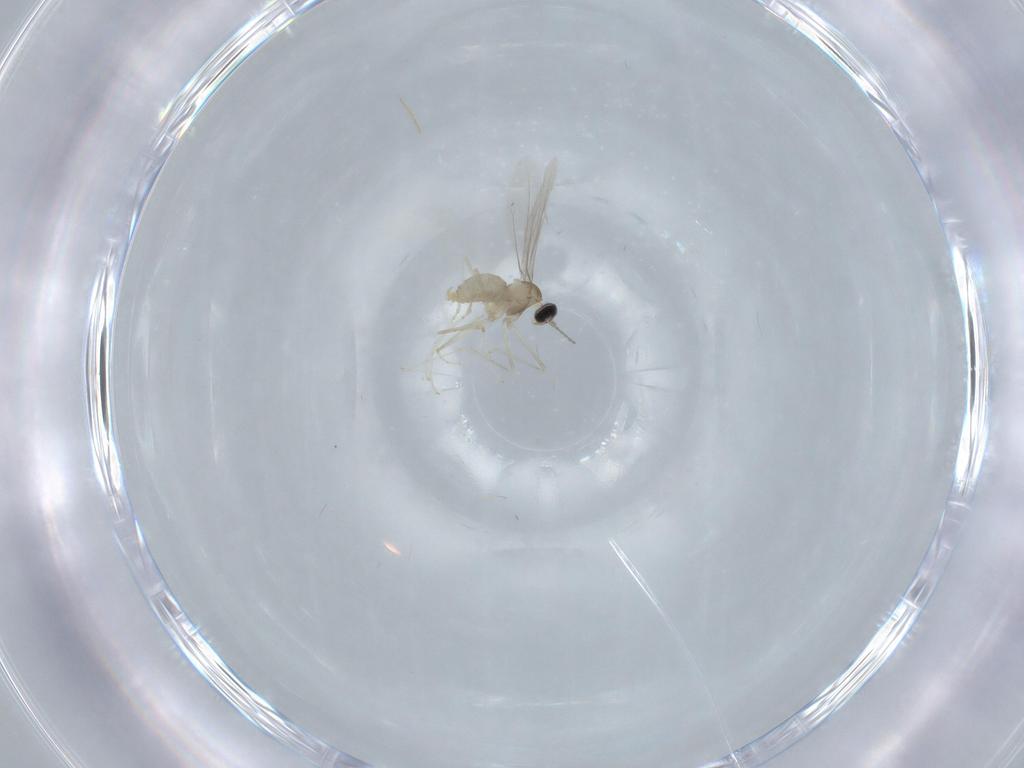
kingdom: Animalia
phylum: Arthropoda
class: Insecta
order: Diptera
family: Cecidomyiidae
